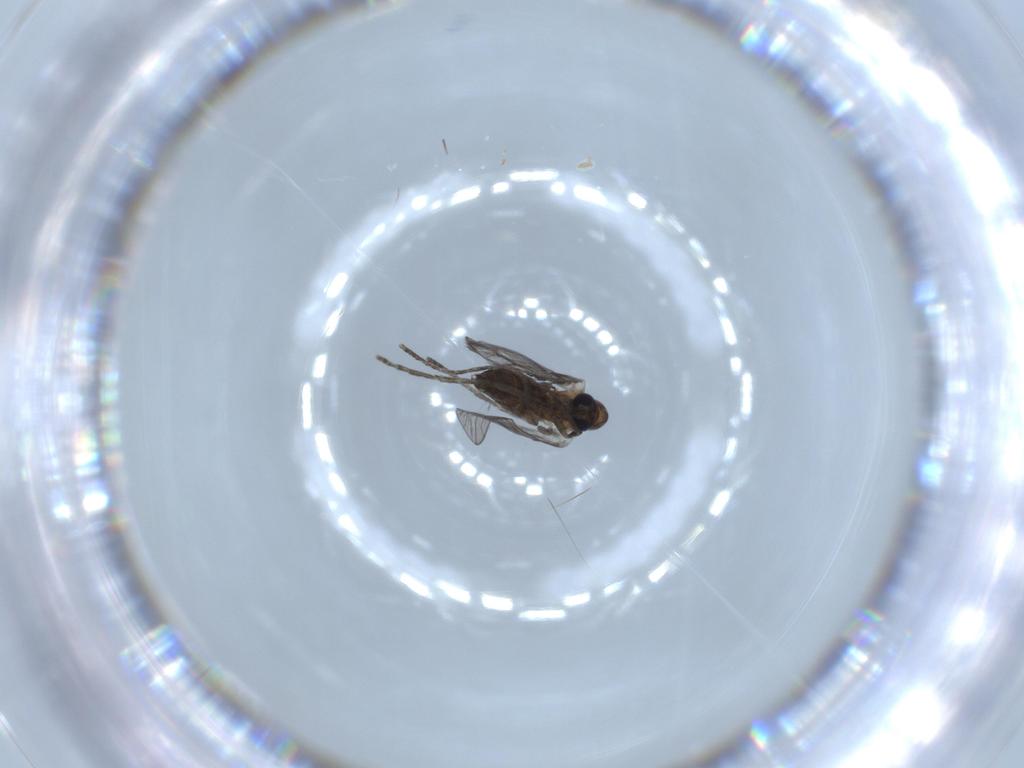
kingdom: Animalia
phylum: Arthropoda
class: Insecta
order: Diptera
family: Psychodidae
